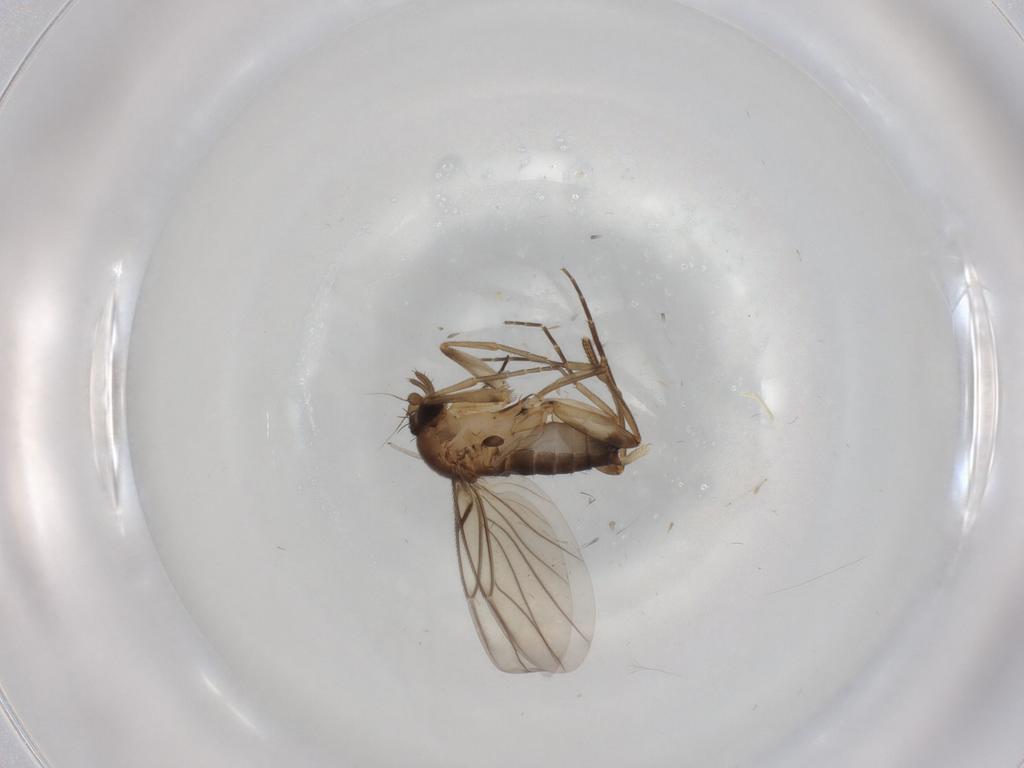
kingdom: Animalia
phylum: Arthropoda
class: Insecta
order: Diptera
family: Phoridae
